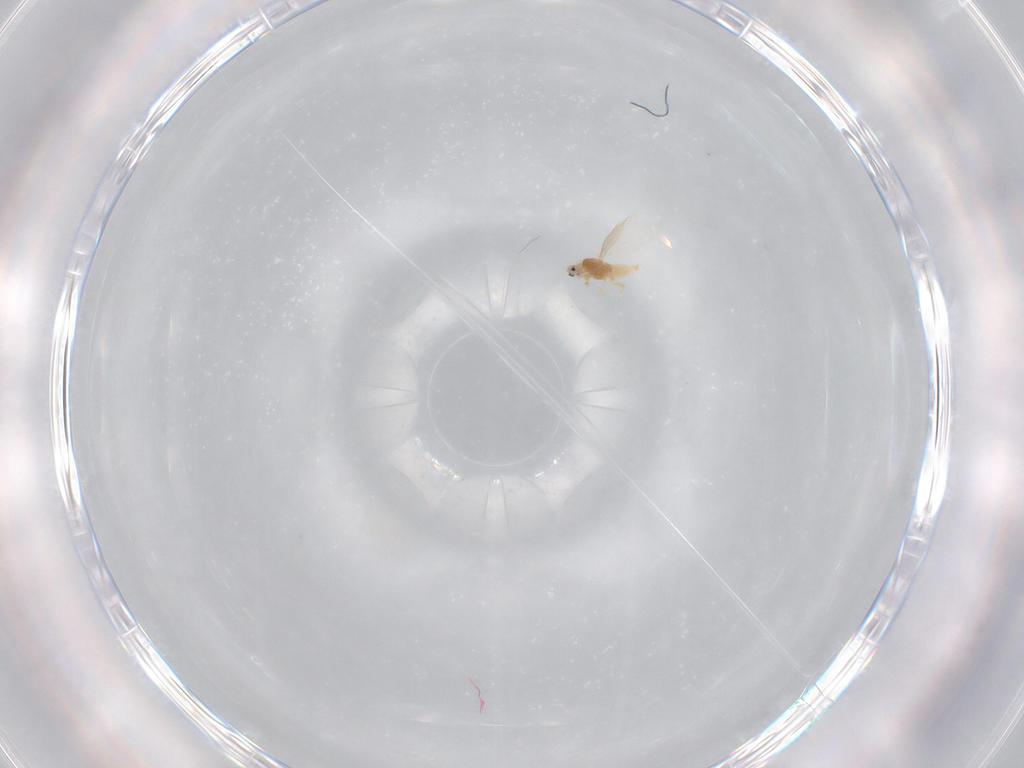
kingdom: Animalia
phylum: Arthropoda
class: Insecta
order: Hemiptera
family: Diaspididae
